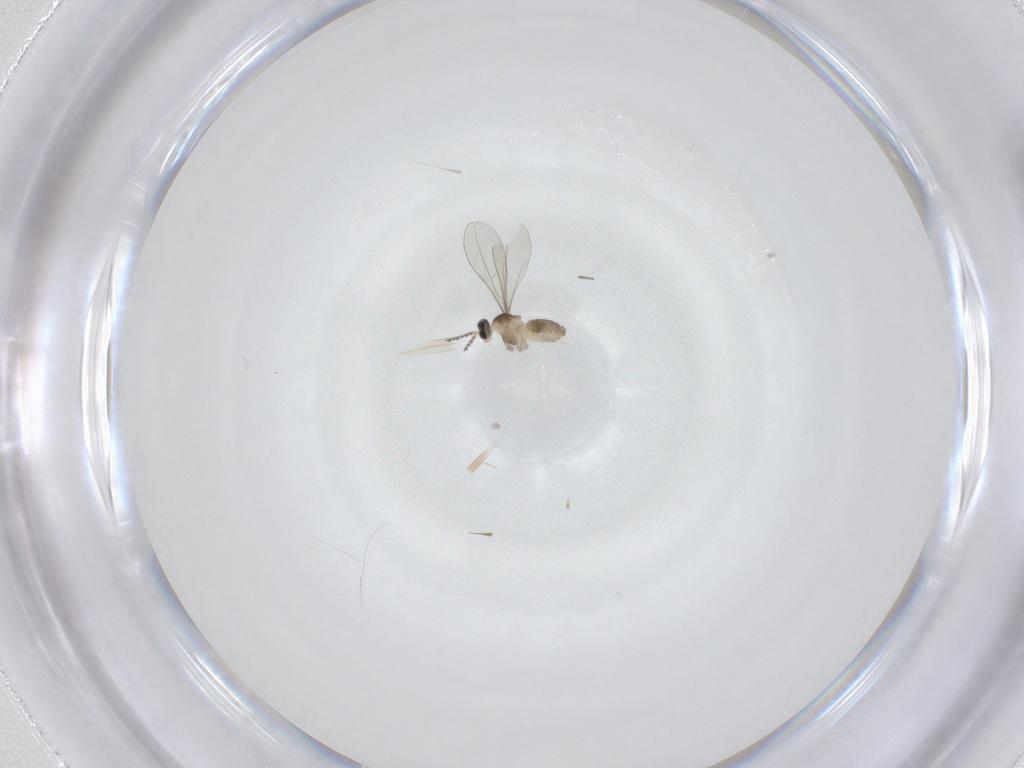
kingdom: Animalia
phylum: Arthropoda
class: Insecta
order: Diptera
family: Cecidomyiidae
